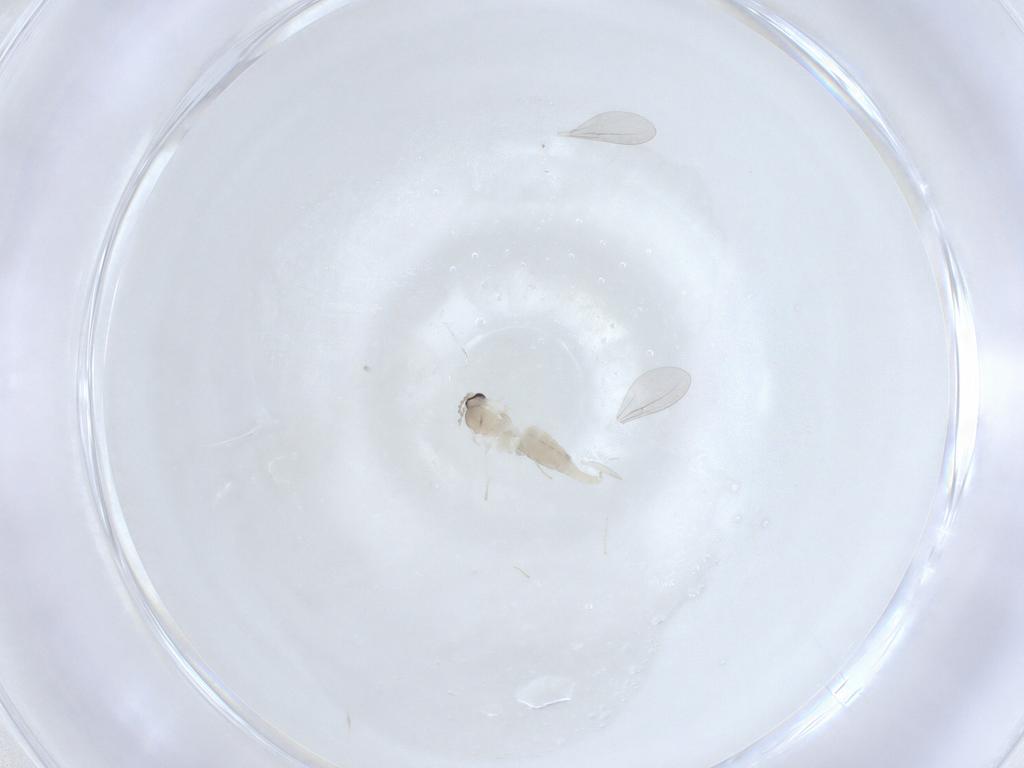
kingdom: Animalia
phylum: Arthropoda
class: Insecta
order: Diptera
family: Cecidomyiidae
